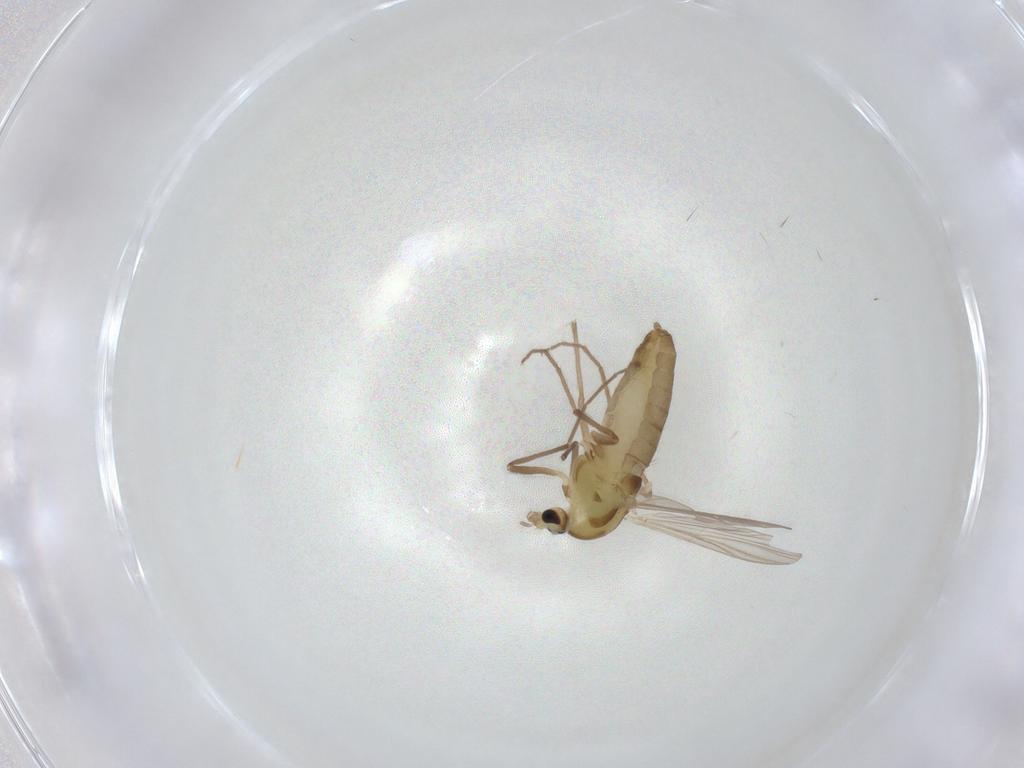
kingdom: Animalia
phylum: Arthropoda
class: Insecta
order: Diptera
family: Chironomidae
